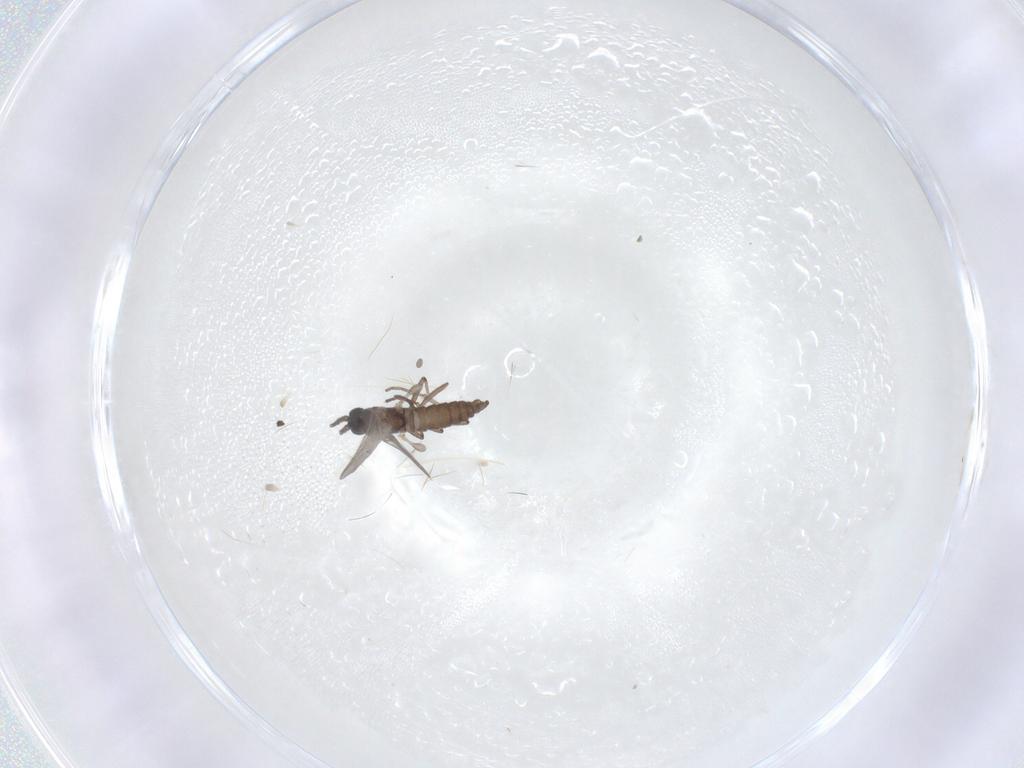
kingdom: Animalia
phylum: Arthropoda
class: Insecta
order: Diptera
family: Sciaridae
